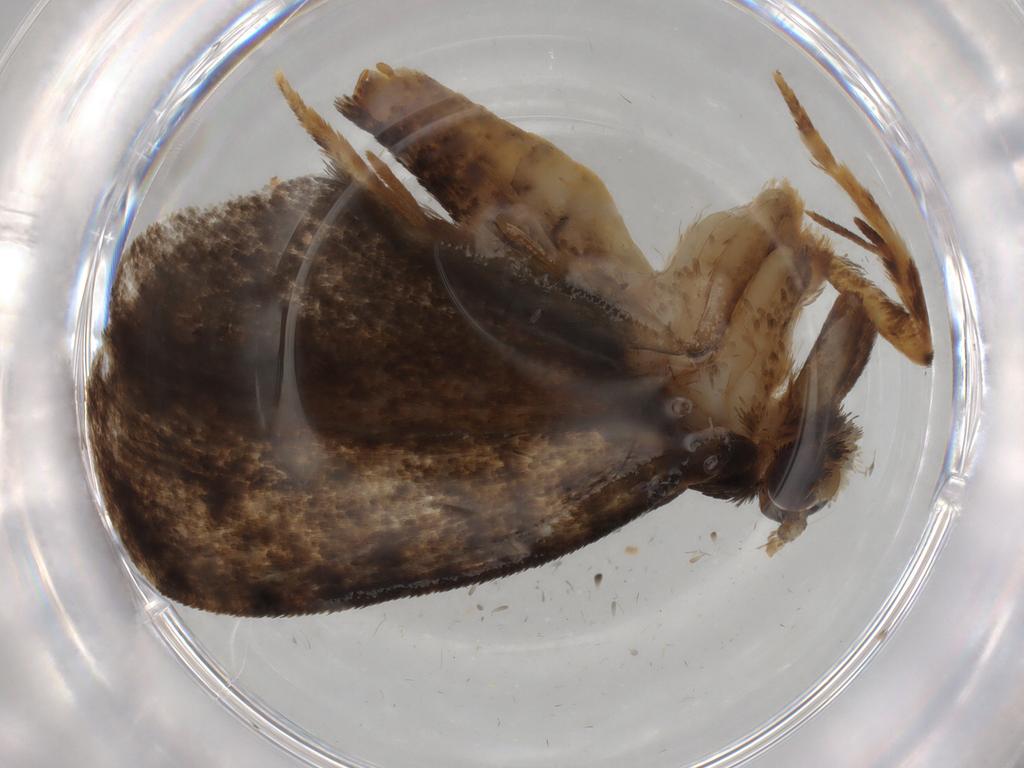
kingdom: Animalia
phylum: Arthropoda
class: Insecta
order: Lepidoptera
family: Tineidae
